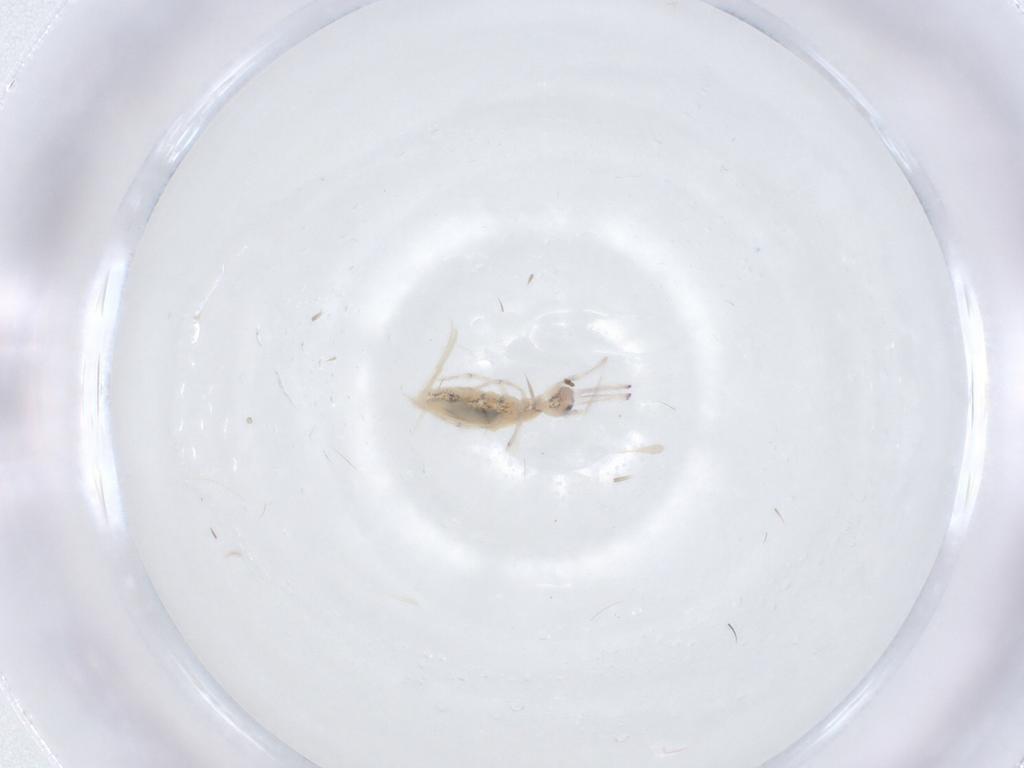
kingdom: Animalia
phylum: Arthropoda
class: Collembola
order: Entomobryomorpha
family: Paronellidae
